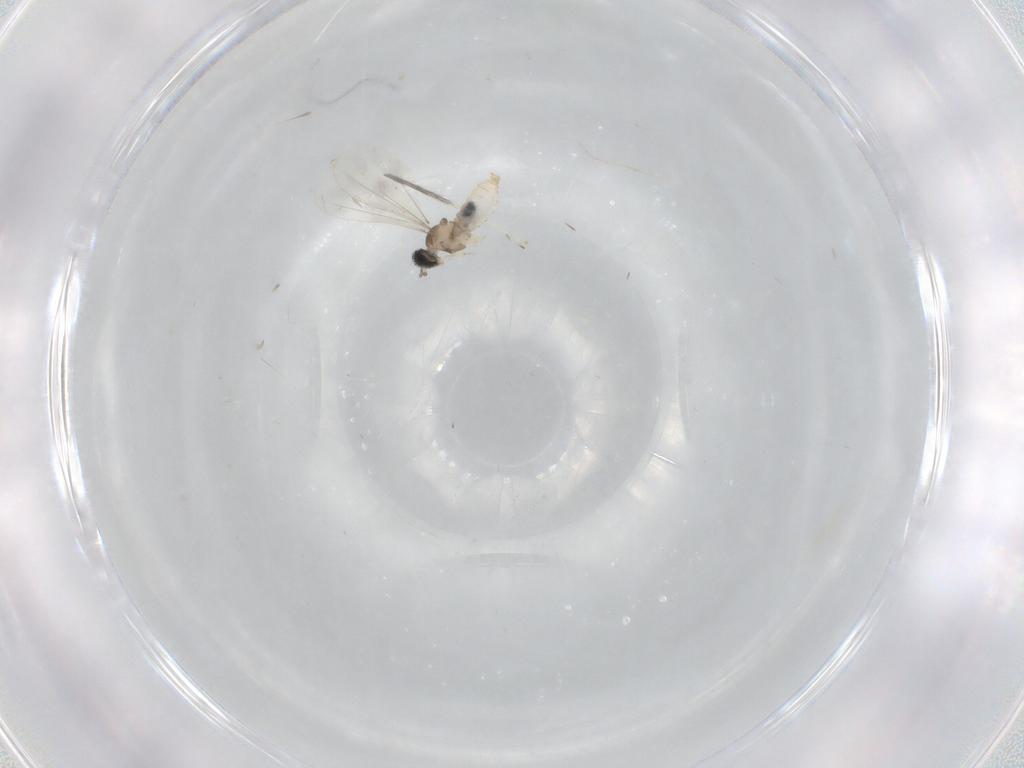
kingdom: Animalia
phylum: Arthropoda
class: Insecta
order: Diptera
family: Cecidomyiidae
